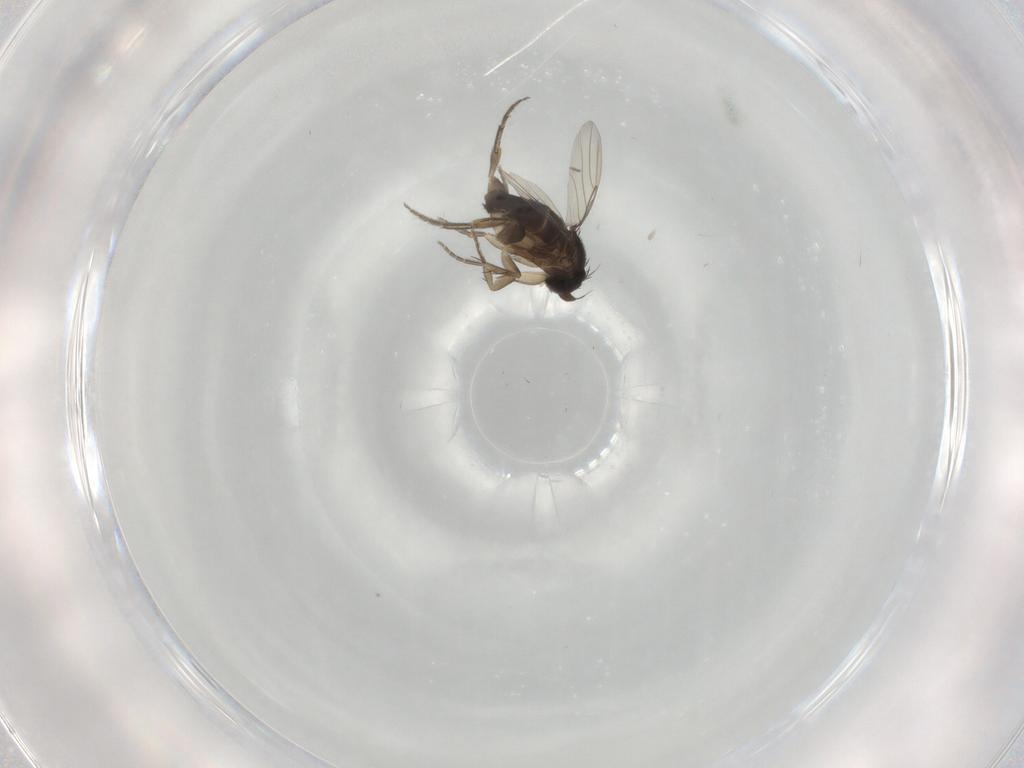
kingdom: Animalia
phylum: Arthropoda
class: Insecta
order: Diptera
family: Phoridae
